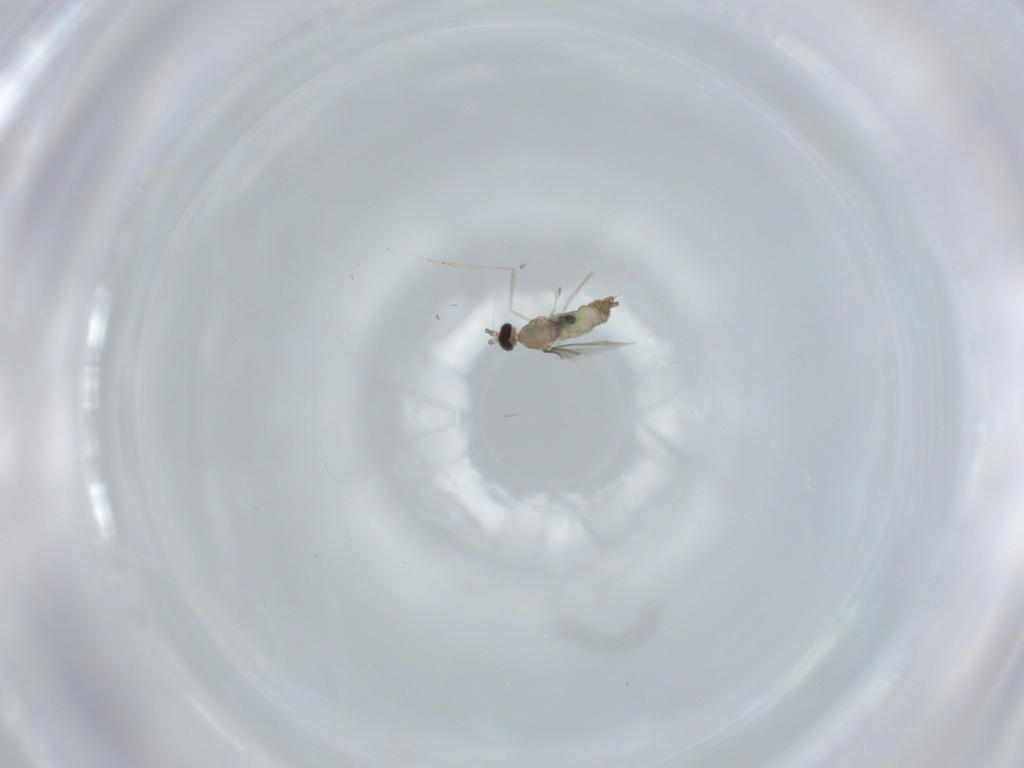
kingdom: Animalia
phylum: Arthropoda
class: Insecta
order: Diptera
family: Cecidomyiidae
